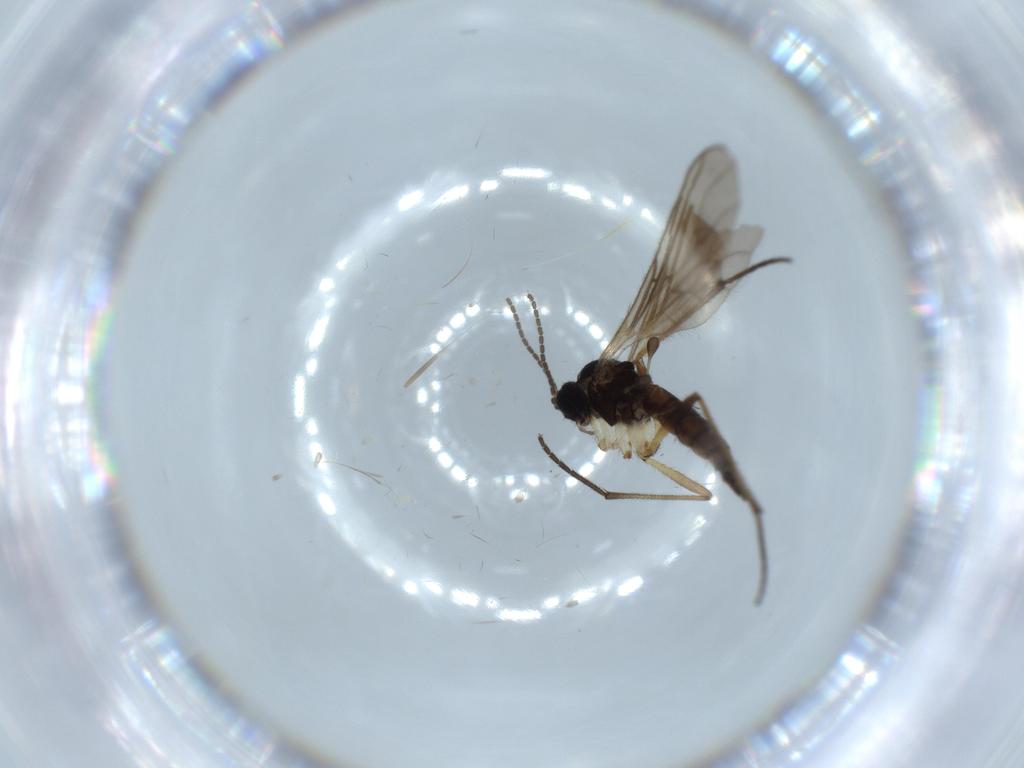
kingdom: Animalia
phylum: Arthropoda
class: Insecta
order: Diptera
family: Sciaridae
